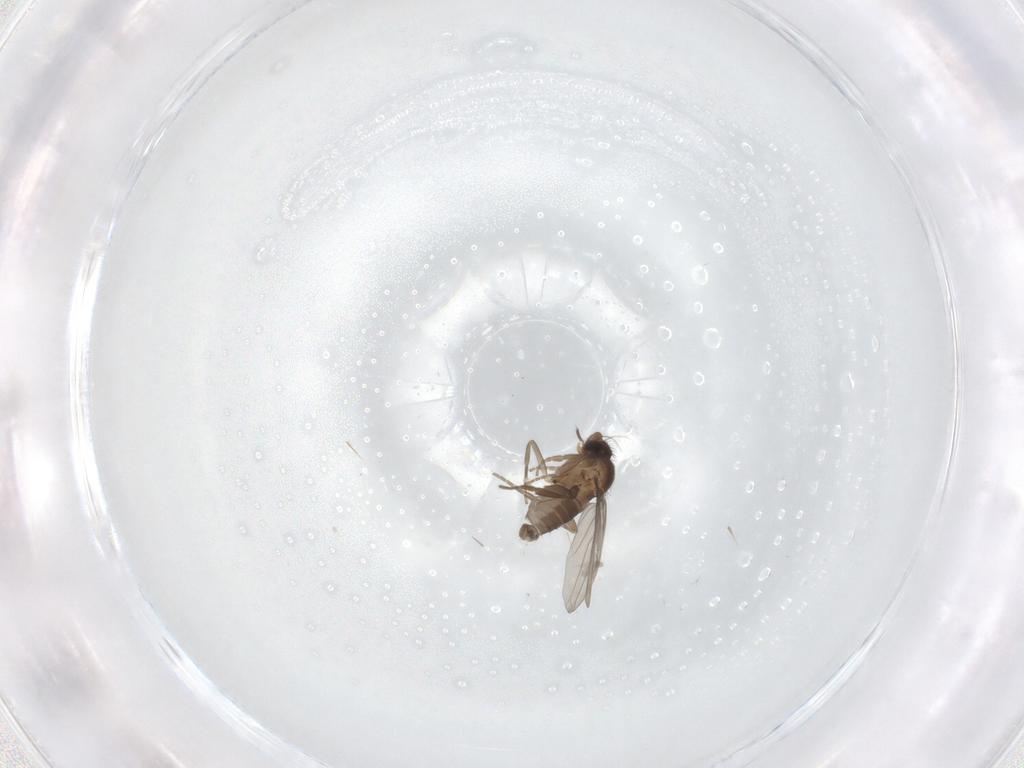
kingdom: Animalia
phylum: Arthropoda
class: Insecta
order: Diptera
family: Phoridae
